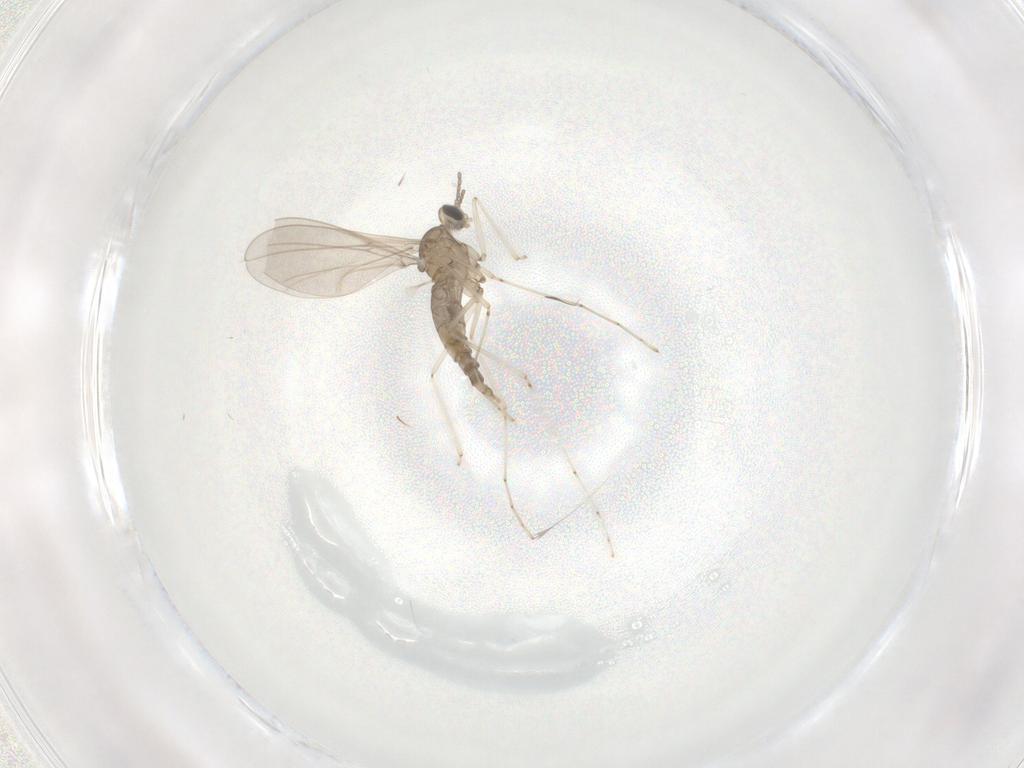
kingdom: Animalia
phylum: Arthropoda
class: Insecta
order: Diptera
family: Cecidomyiidae
